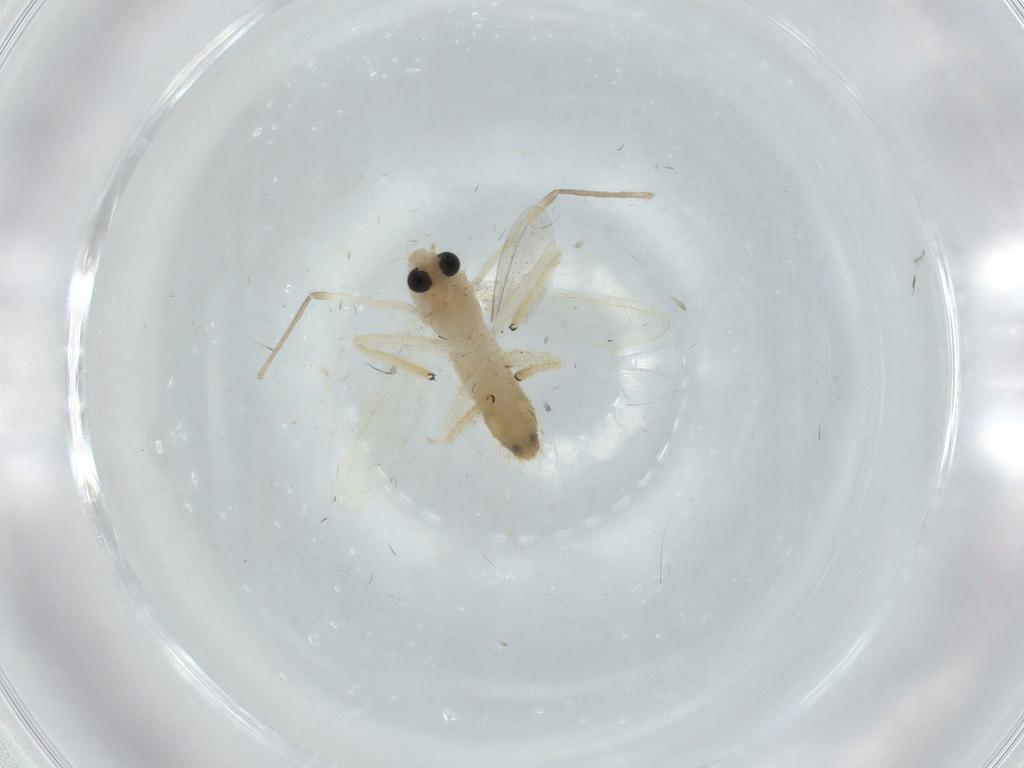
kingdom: Animalia
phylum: Arthropoda
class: Insecta
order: Diptera
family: Chironomidae
